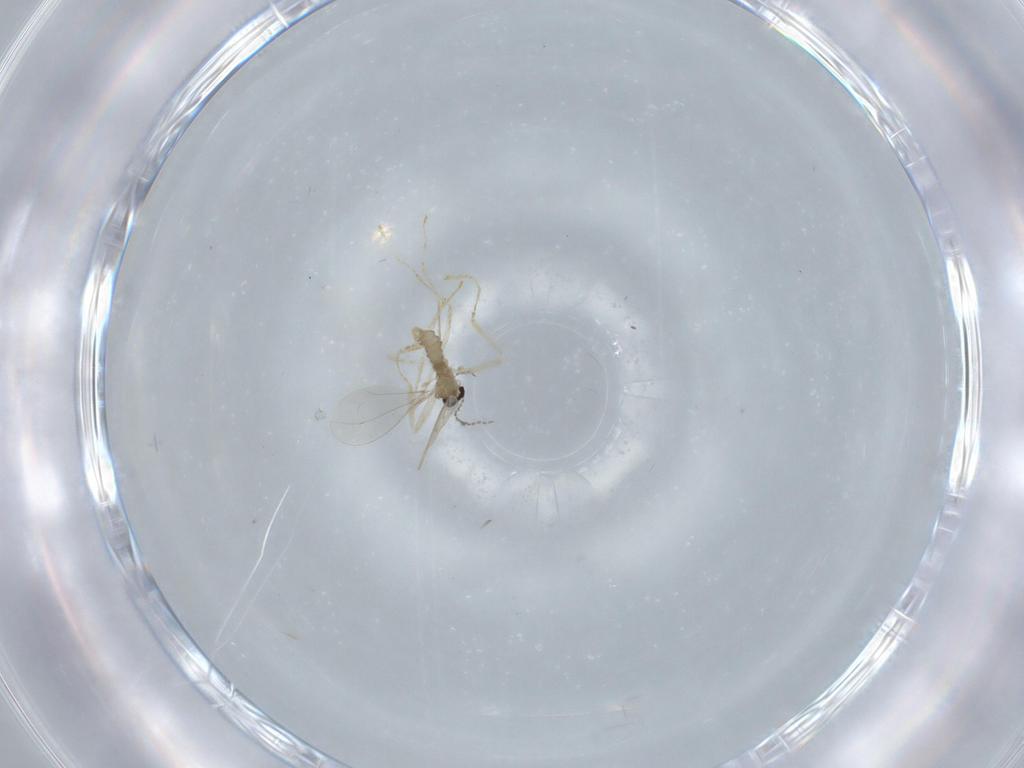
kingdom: Animalia
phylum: Arthropoda
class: Insecta
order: Diptera
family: Cecidomyiidae
